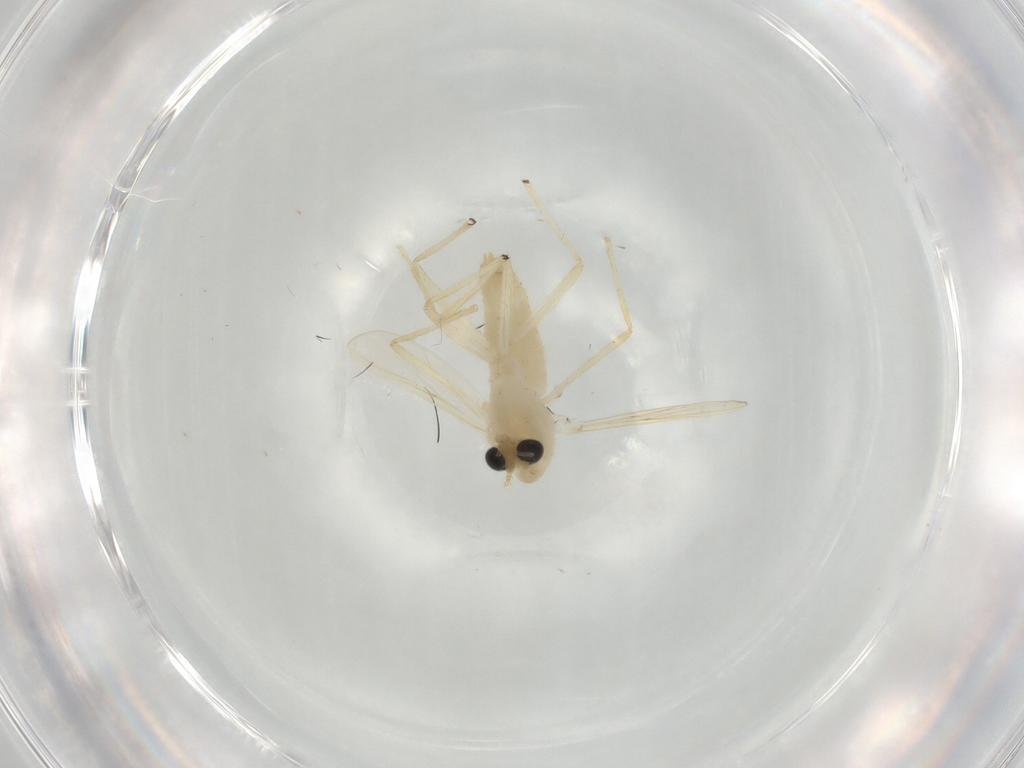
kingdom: Animalia
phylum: Arthropoda
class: Insecta
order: Diptera
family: Chironomidae
